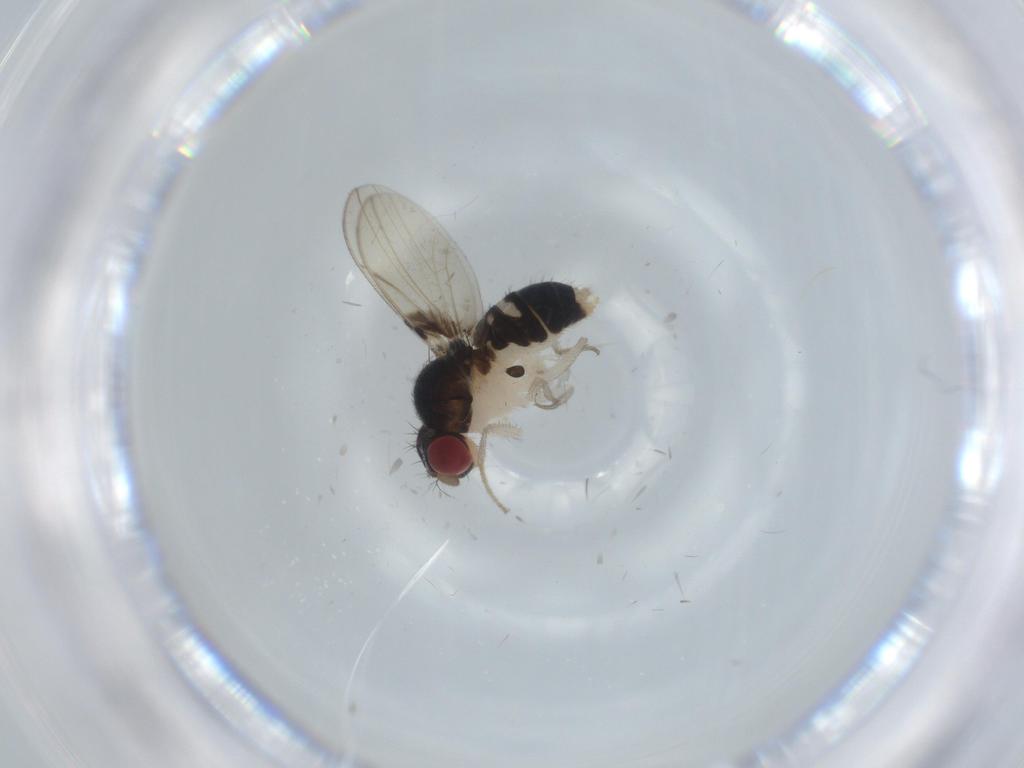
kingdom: Animalia
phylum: Arthropoda
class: Insecta
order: Diptera
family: Drosophilidae
